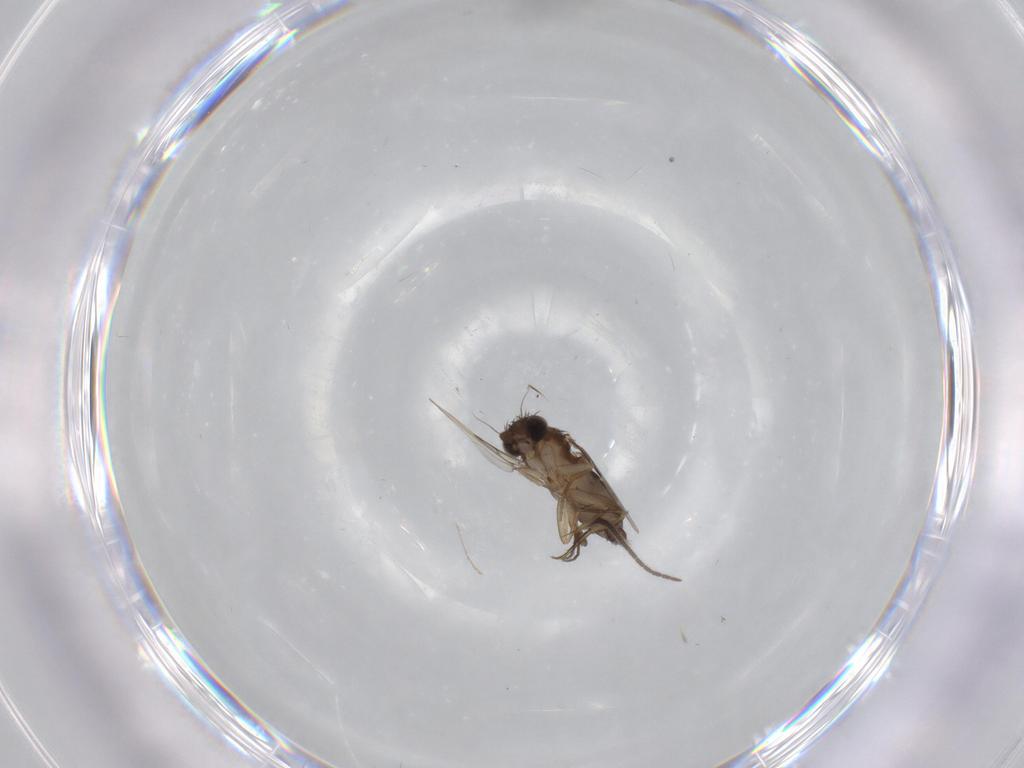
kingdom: Animalia
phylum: Arthropoda
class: Insecta
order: Diptera
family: Phoridae
